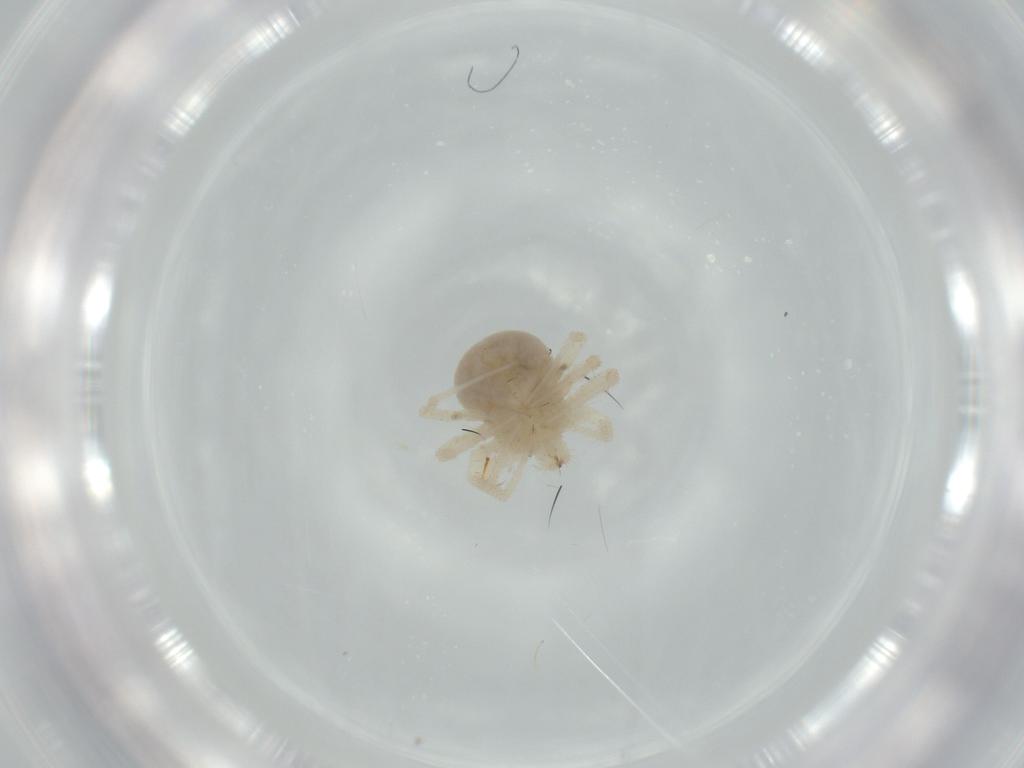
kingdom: Animalia
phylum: Arthropoda
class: Arachnida
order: Trombidiformes
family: Anystidae
